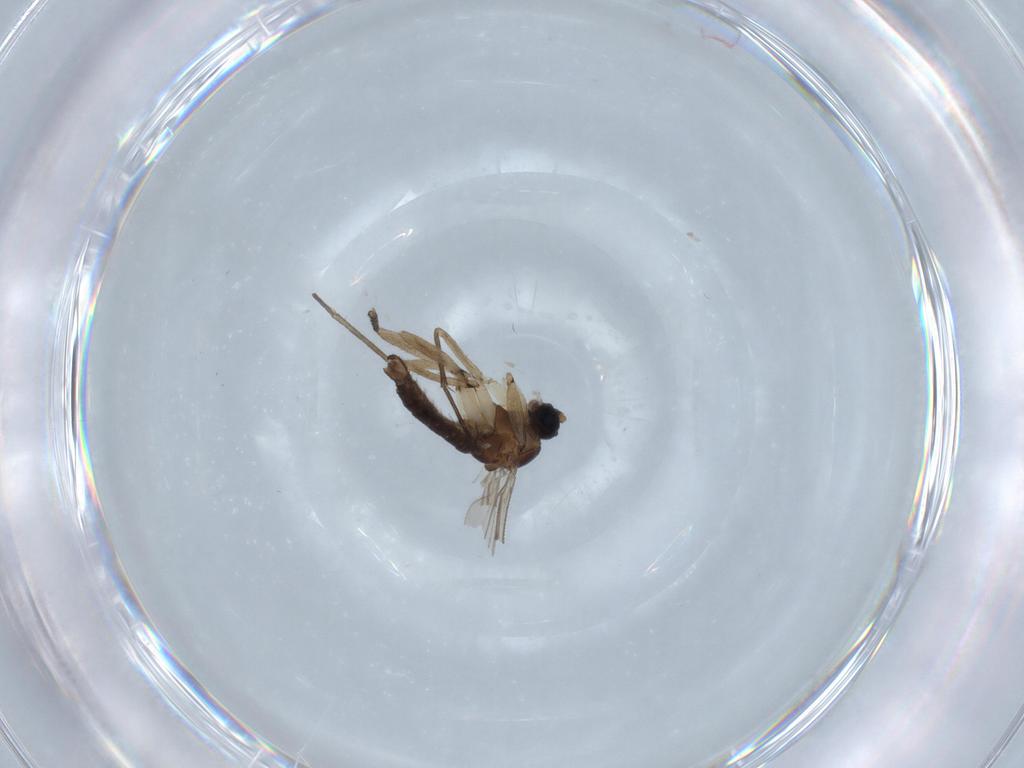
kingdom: Animalia
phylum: Arthropoda
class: Insecta
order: Diptera
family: Sciaridae
